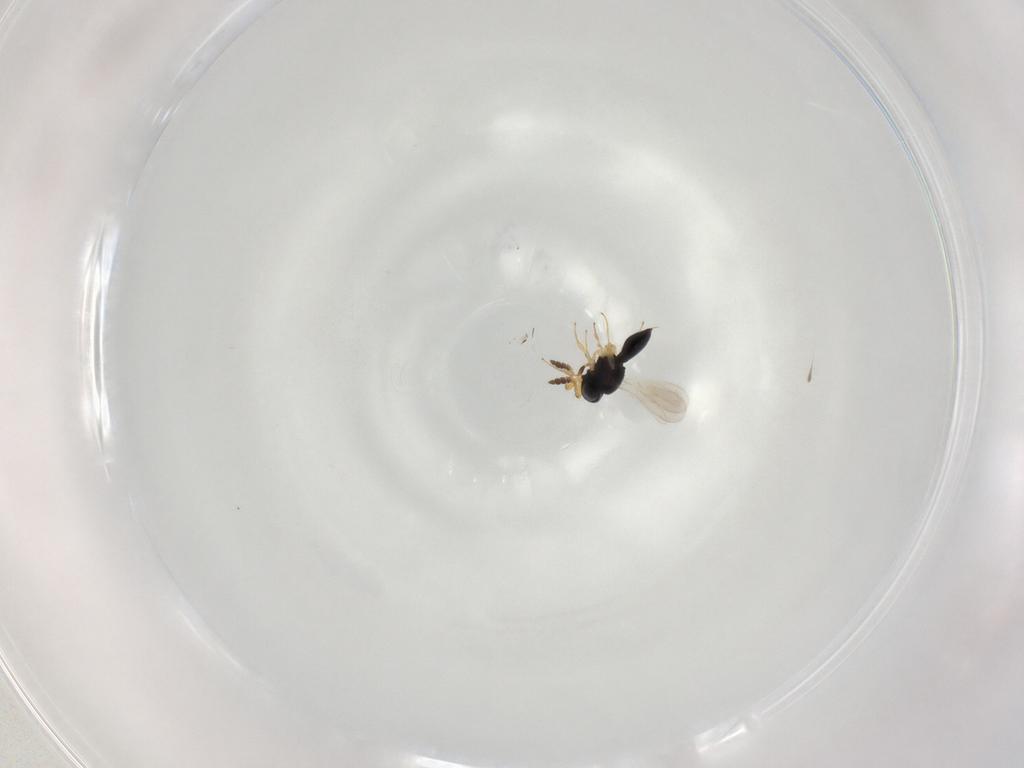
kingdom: Animalia
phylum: Arthropoda
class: Insecta
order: Hymenoptera
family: Scelionidae
